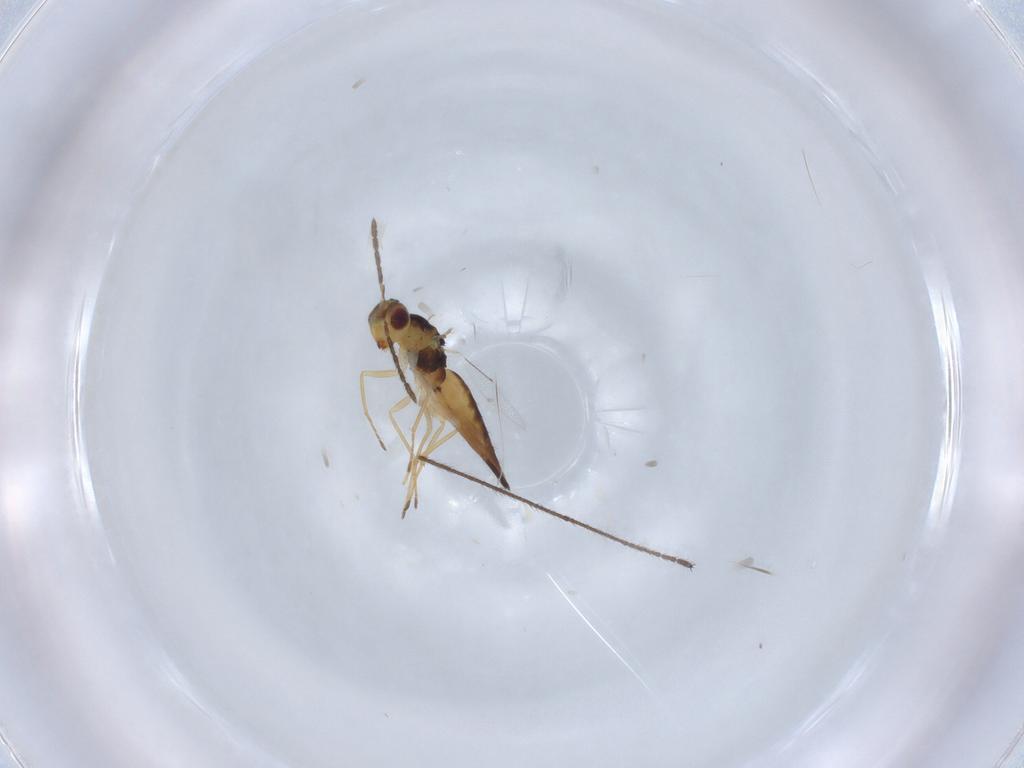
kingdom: Animalia
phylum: Arthropoda
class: Insecta
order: Hymenoptera
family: Eulophidae
